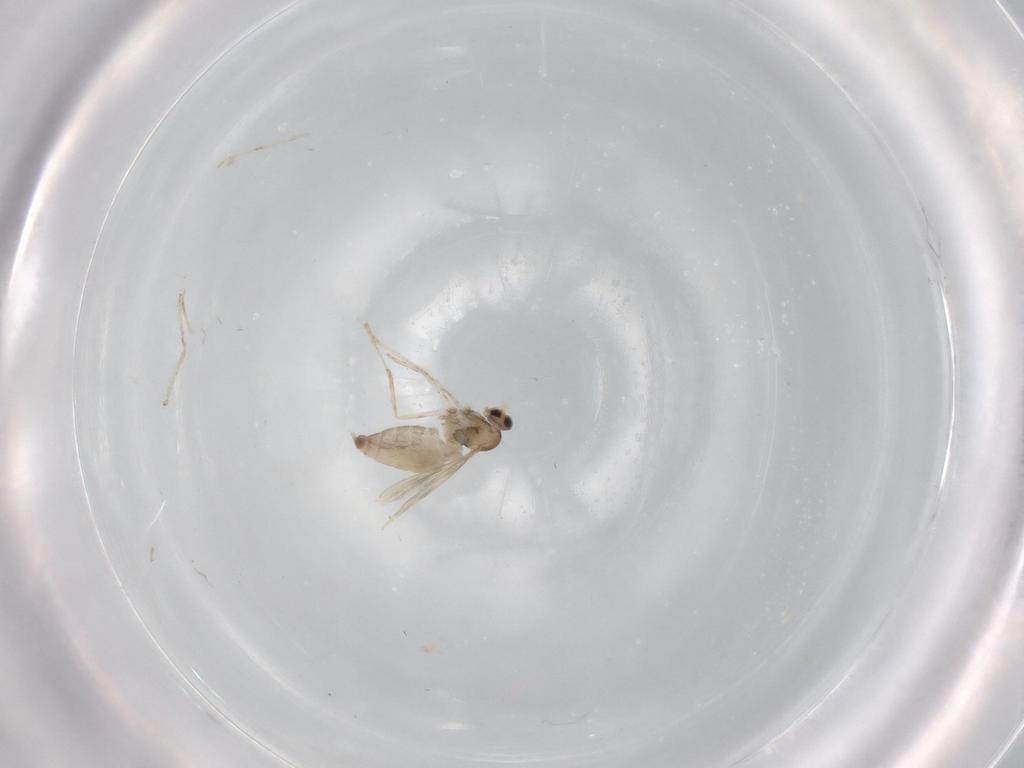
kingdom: Animalia
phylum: Arthropoda
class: Insecta
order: Diptera
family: Cecidomyiidae
